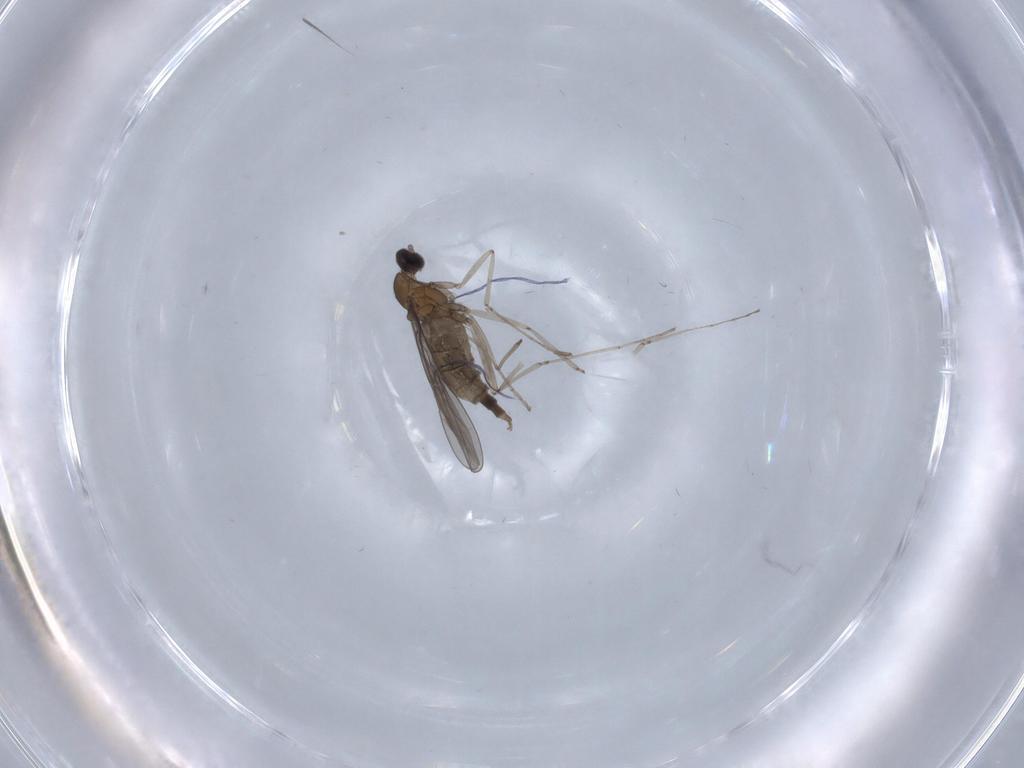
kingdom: Animalia
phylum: Arthropoda
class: Insecta
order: Diptera
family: Cecidomyiidae
